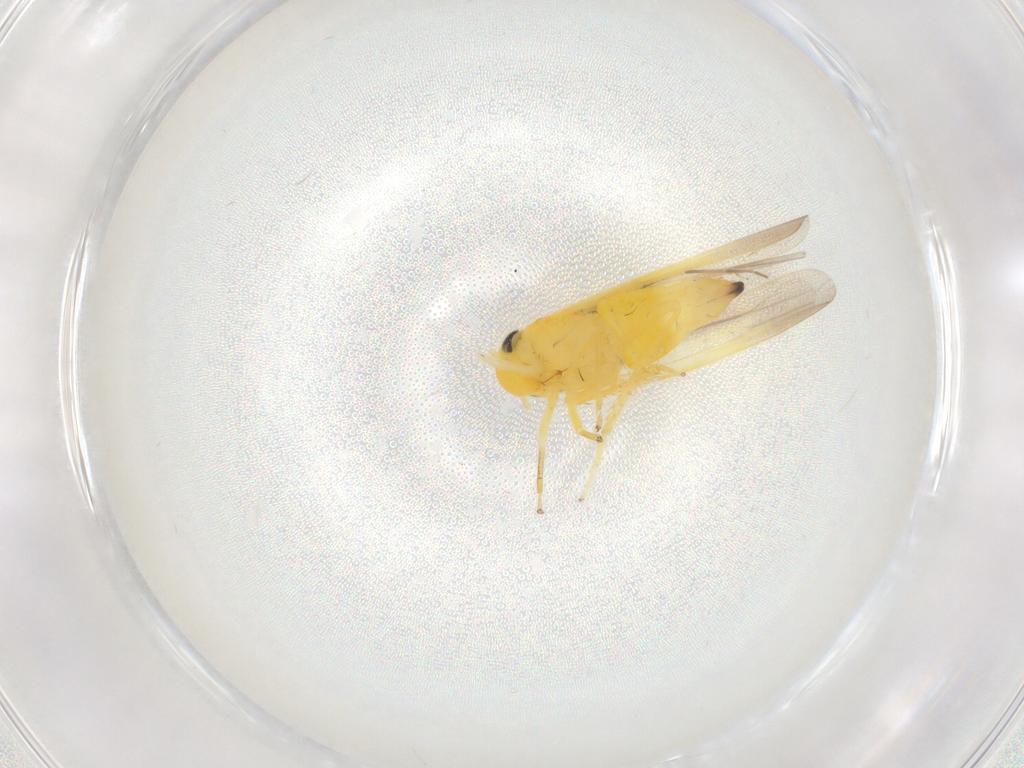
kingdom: Animalia
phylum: Arthropoda
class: Insecta
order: Hemiptera
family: Cicadellidae
